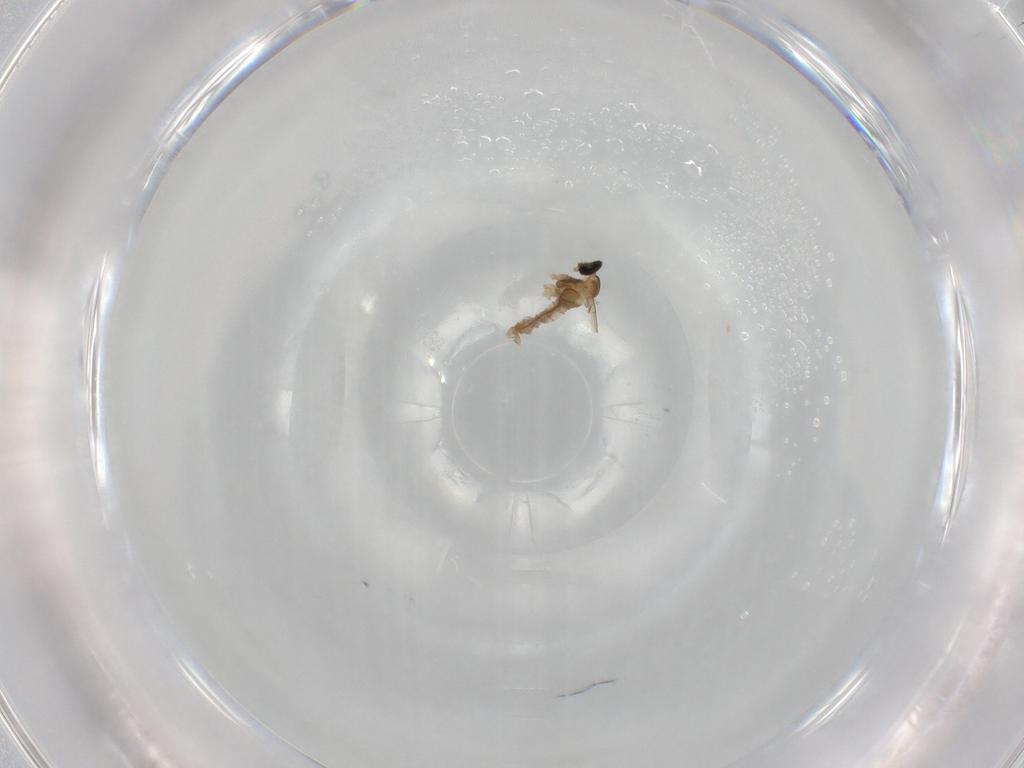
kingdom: Animalia
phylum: Arthropoda
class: Insecta
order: Diptera
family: Cecidomyiidae
